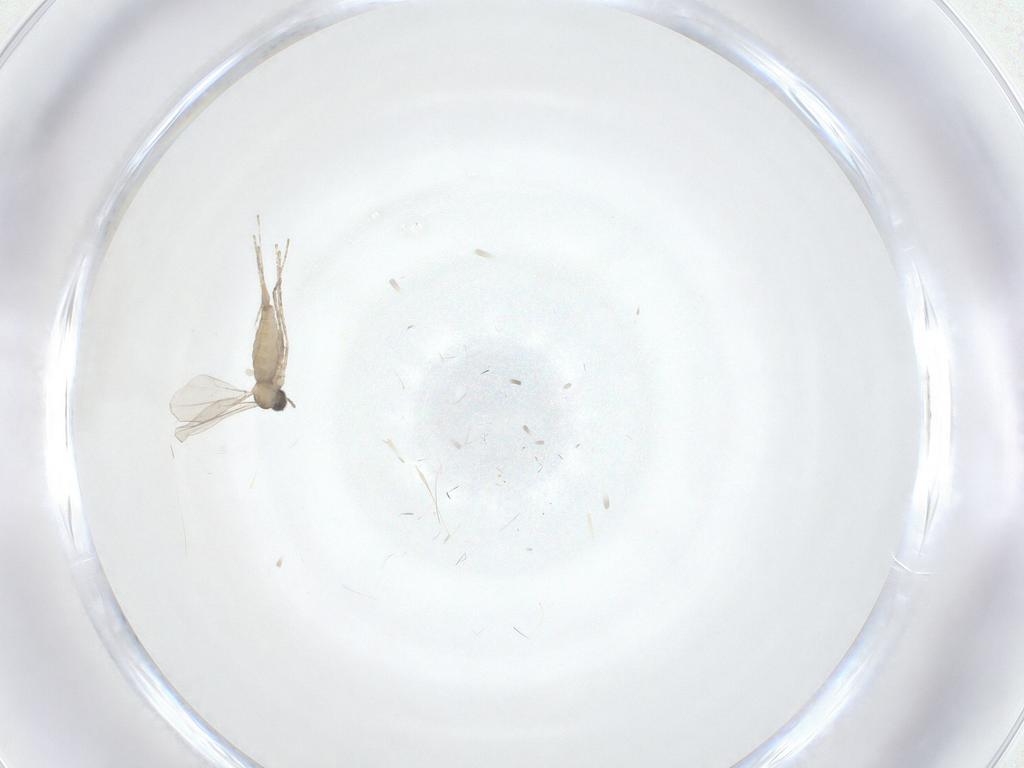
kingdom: Animalia
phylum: Arthropoda
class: Insecta
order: Diptera
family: Cecidomyiidae
